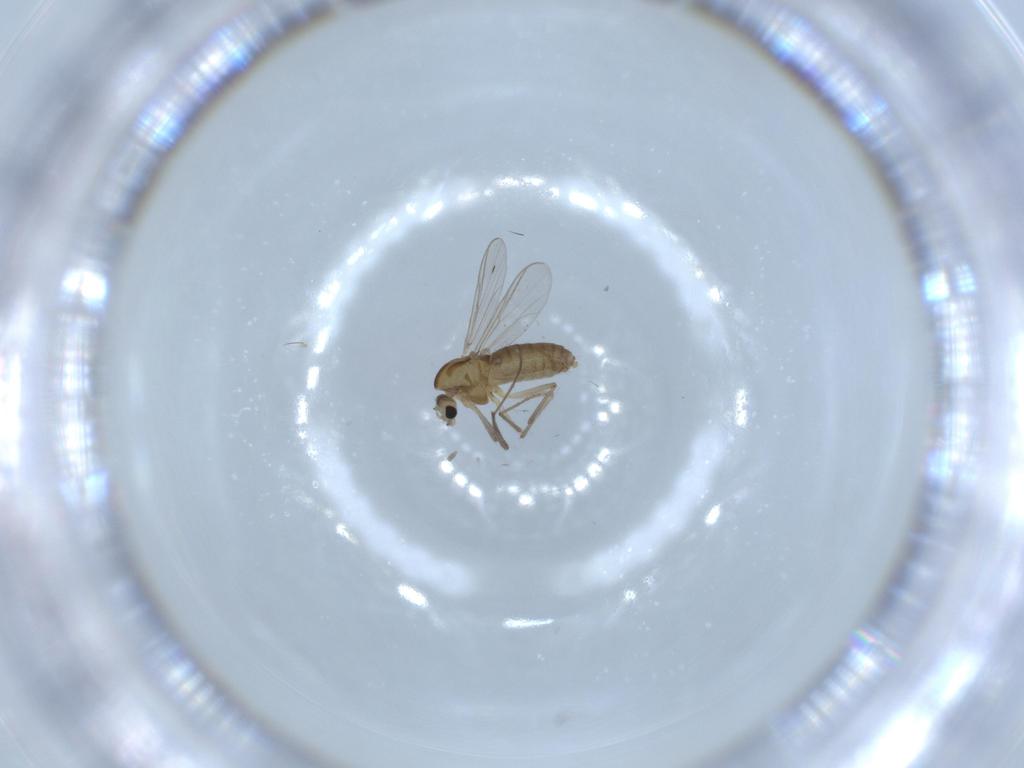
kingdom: Animalia
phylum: Arthropoda
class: Insecta
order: Diptera
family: Chironomidae
